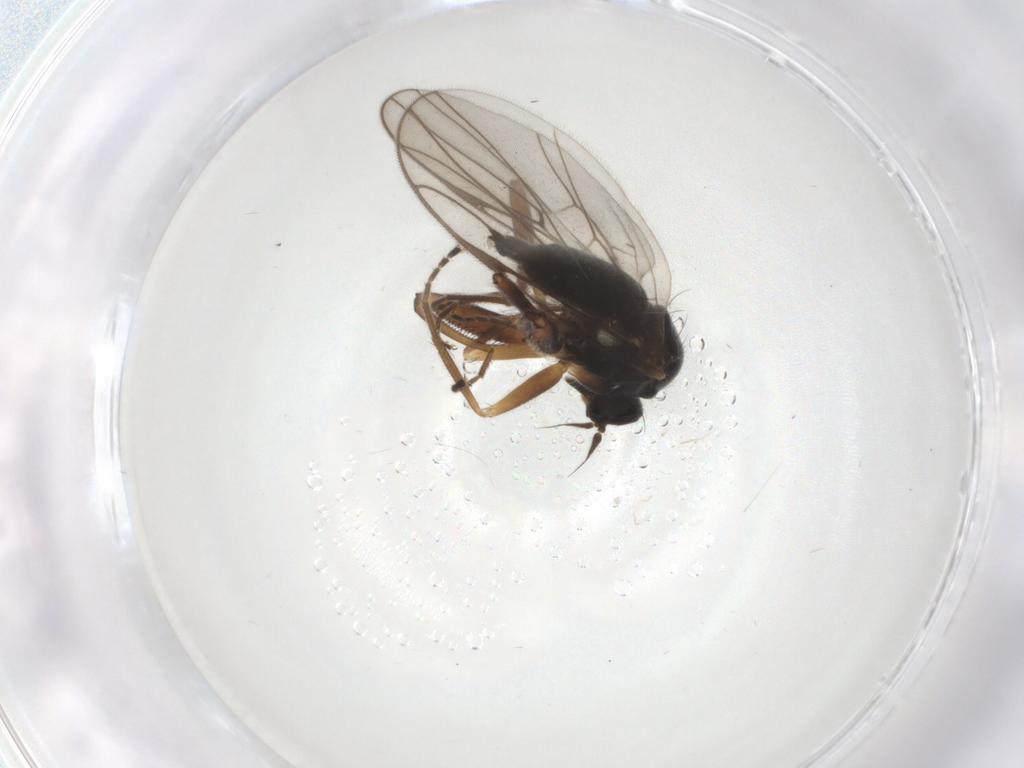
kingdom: Animalia
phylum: Arthropoda
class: Insecta
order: Diptera
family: Hybotidae
